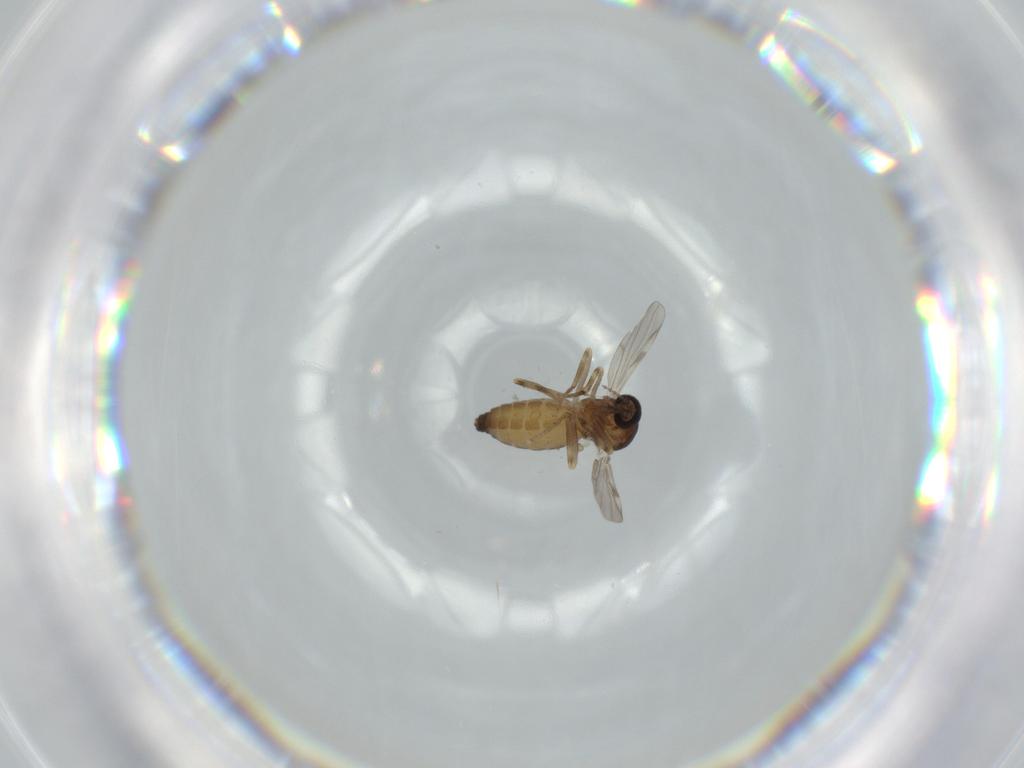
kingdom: Animalia
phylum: Arthropoda
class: Insecta
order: Diptera
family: Ceratopogonidae
